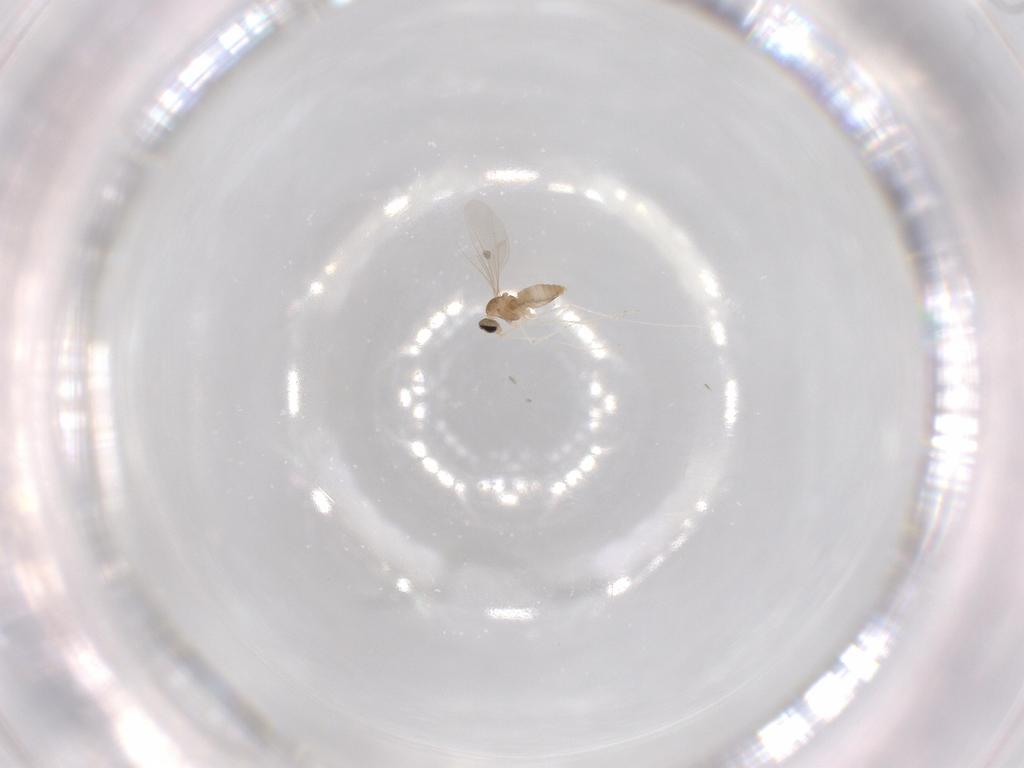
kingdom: Animalia
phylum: Arthropoda
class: Insecta
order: Diptera
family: Cecidomyiidae
